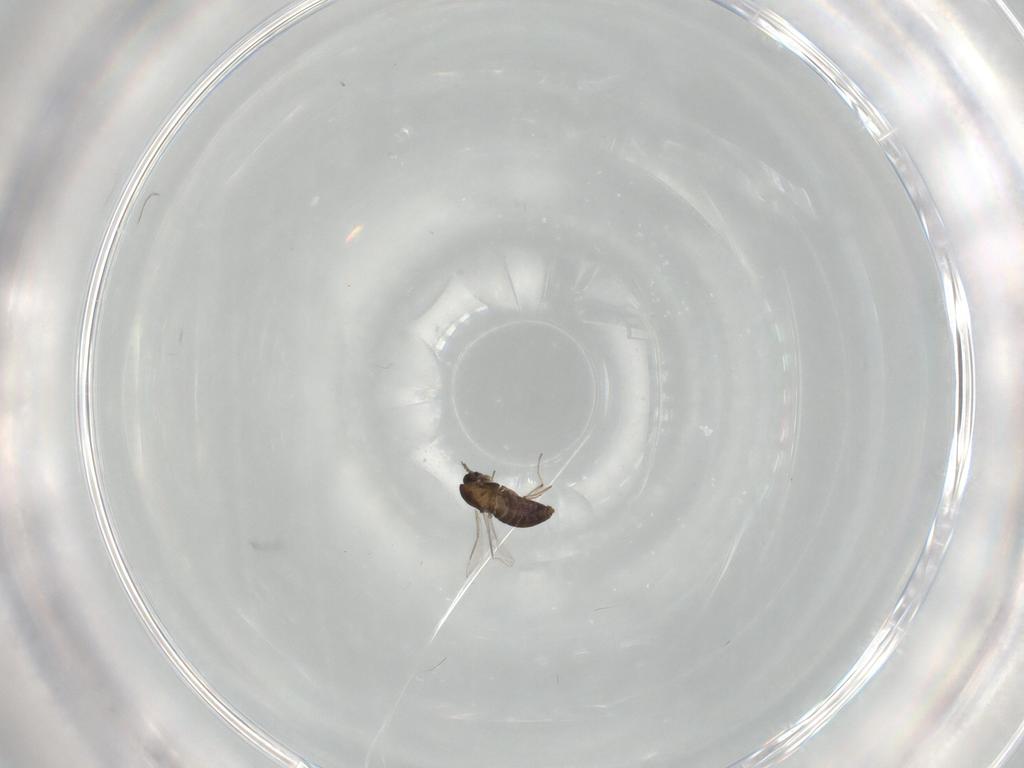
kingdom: Animalia
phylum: Arthropoda
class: Insecta
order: Diptera
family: Chironomidae
